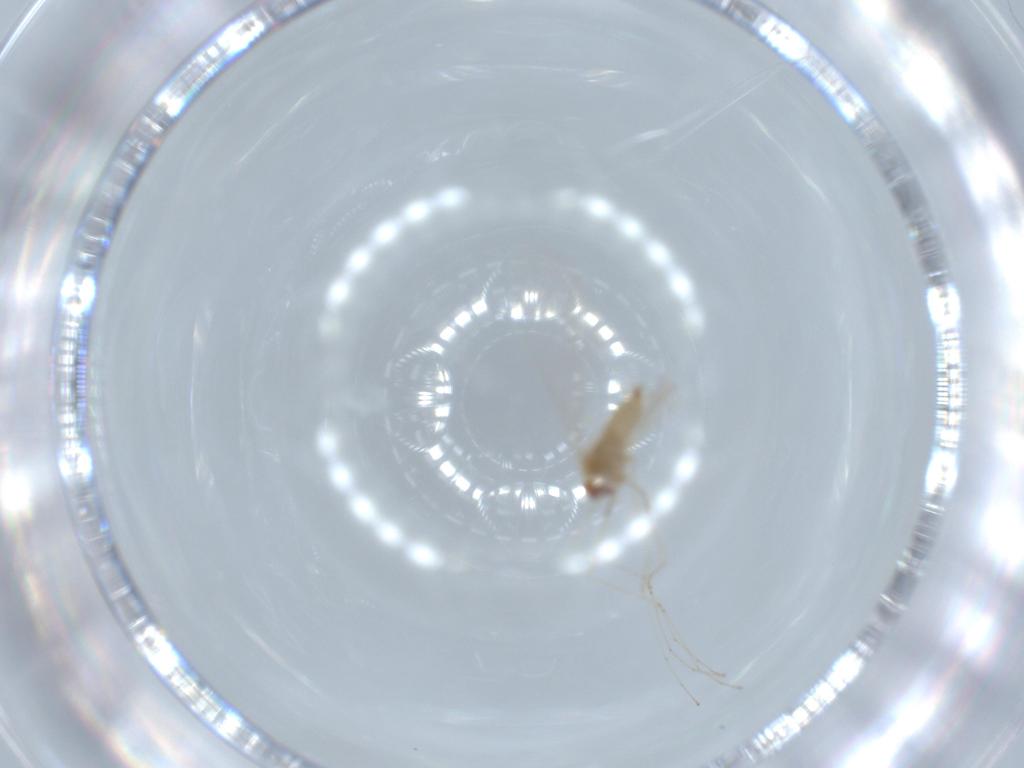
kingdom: Animalia
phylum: Arthropoda
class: Insecta
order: Diptera
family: Cecidomyiidae
